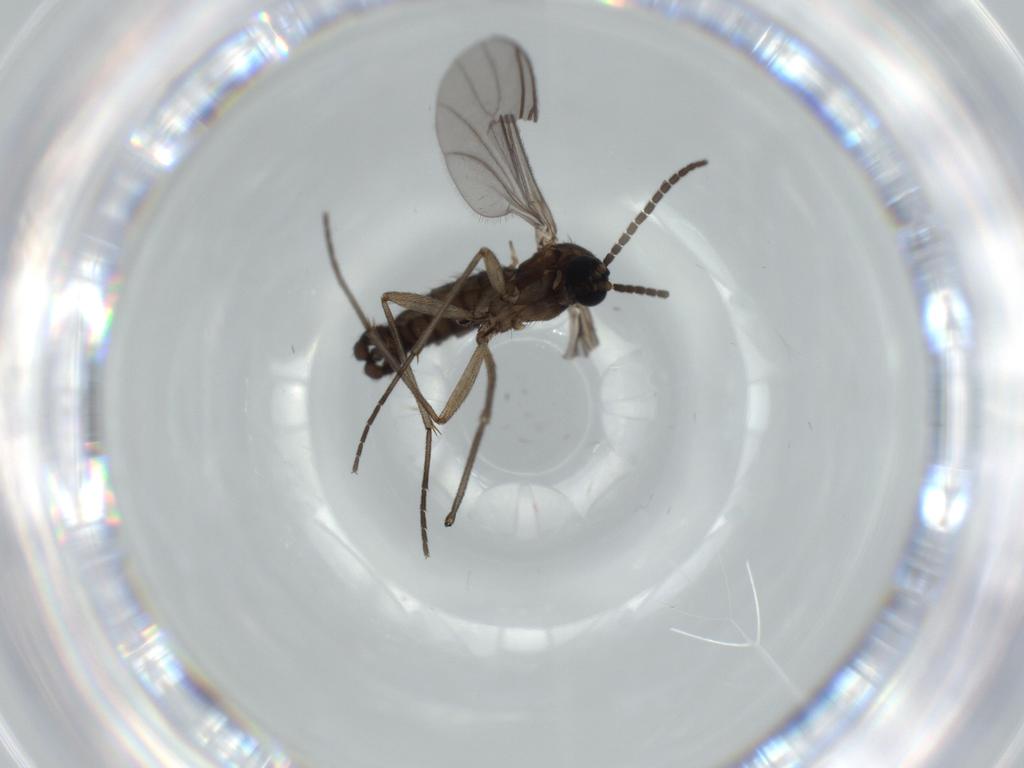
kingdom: Animalia
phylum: Arthropoda
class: Insecta
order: Diptera
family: Sciaridae
